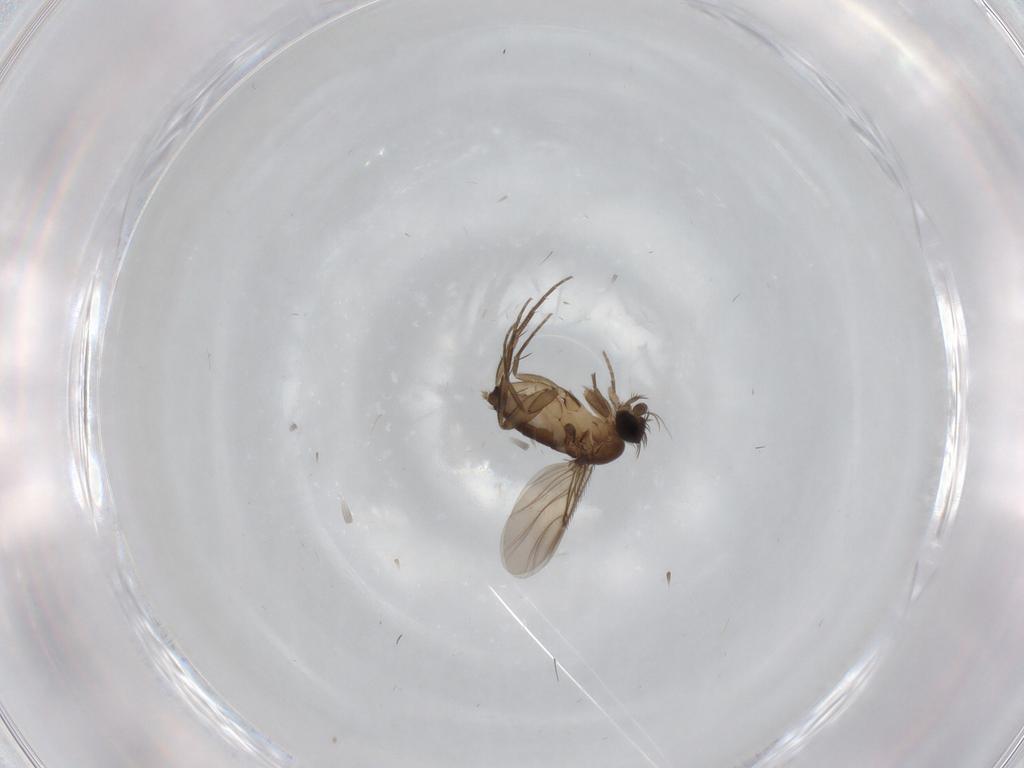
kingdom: Animalia
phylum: Arthropoda
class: Insecta
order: Diptera
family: Phoridae
